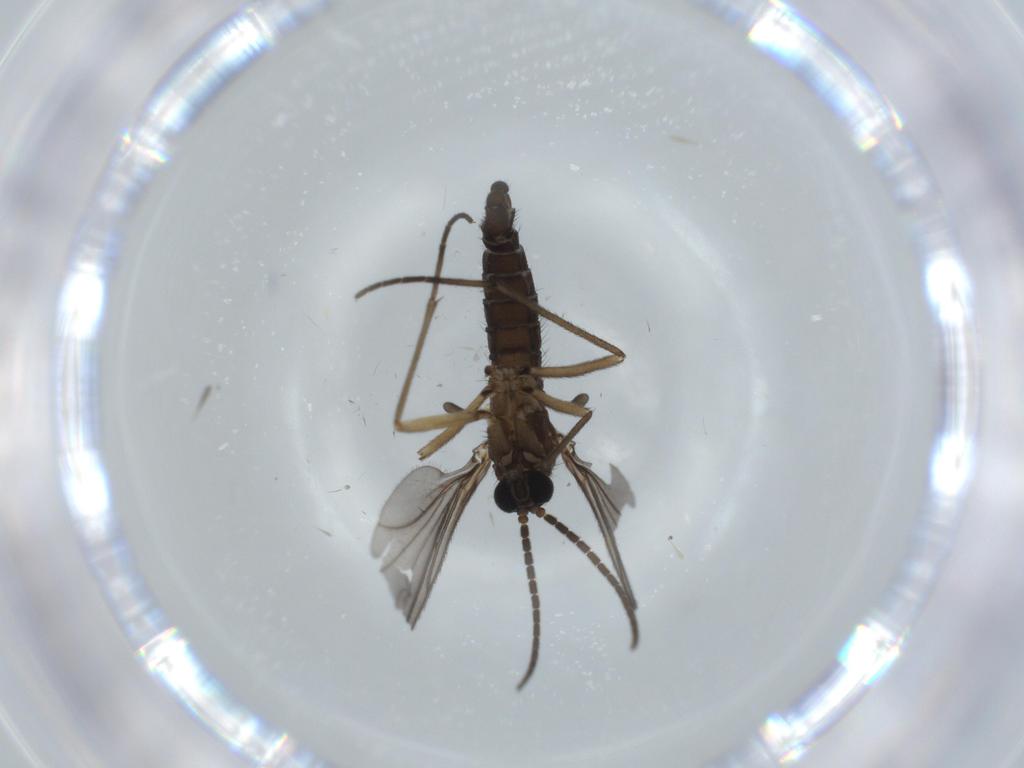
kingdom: Animalia
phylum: Arthropoda
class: Insecta
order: Diptera
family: Sciaridae
